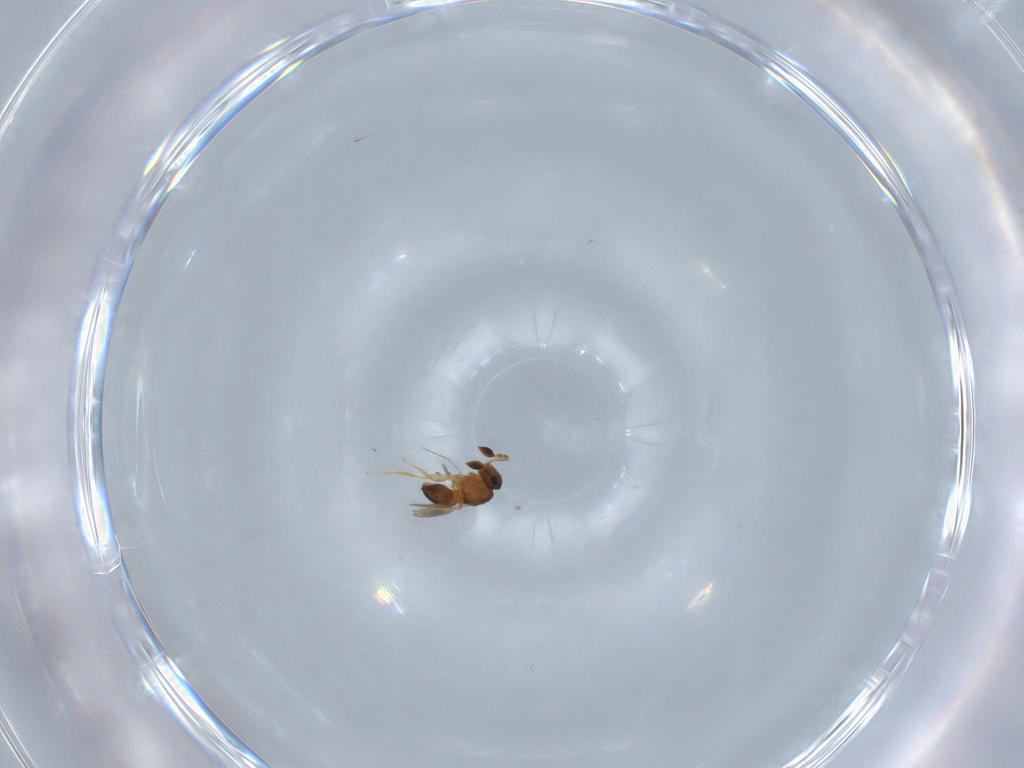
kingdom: Animalia
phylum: Arthropoda
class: Insecta
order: Hymenoptera
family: Scelionidae
